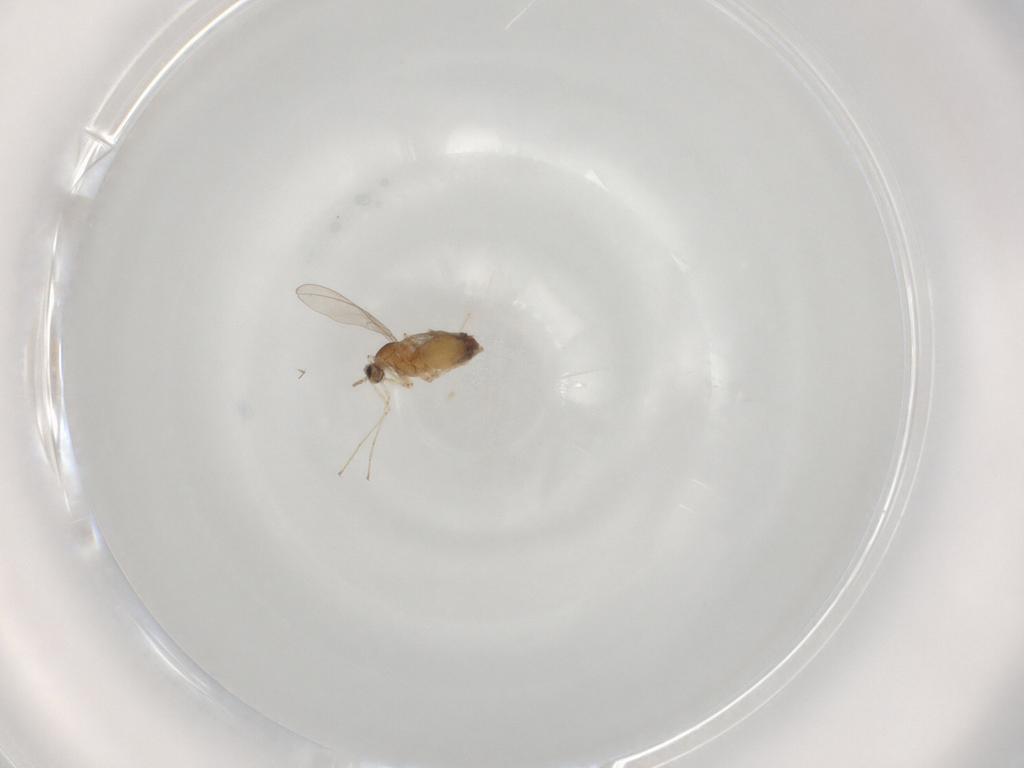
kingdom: Animalia
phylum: Arthropoda
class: Insecta
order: Diptera
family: Cecidomyiidae
